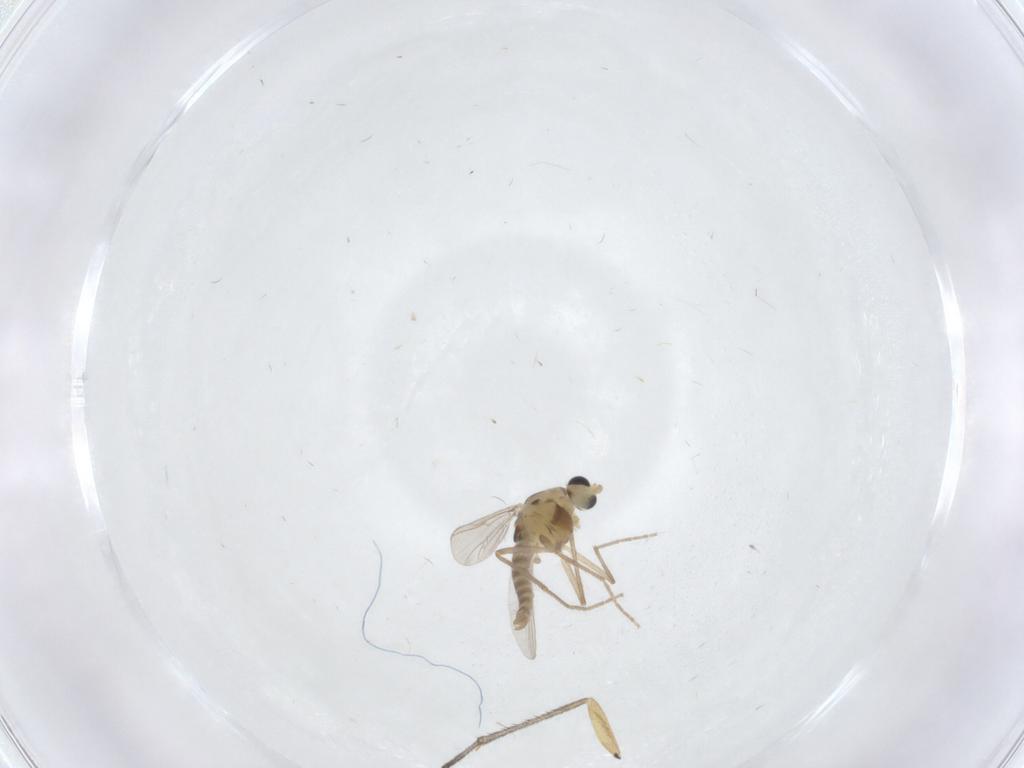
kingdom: Animalia
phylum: Arthropoda
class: Insecta
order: Diptera
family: Chironomidae
